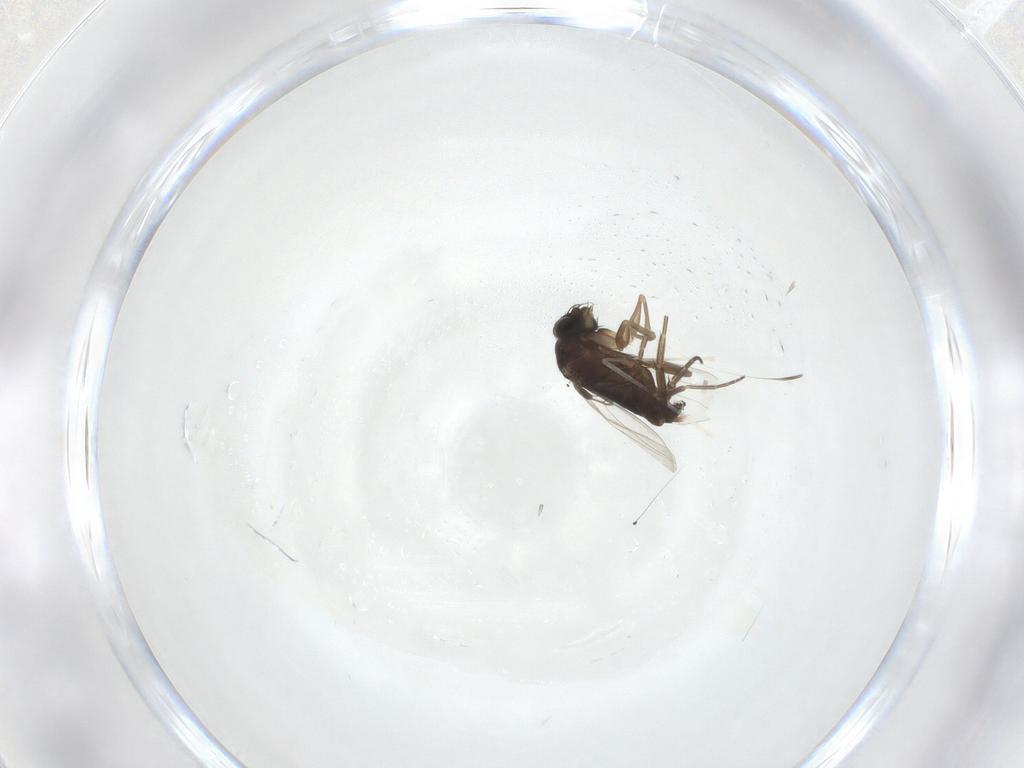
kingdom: Animalia
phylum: Arthropoda
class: Insecta
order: Diptera
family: Phoridae
